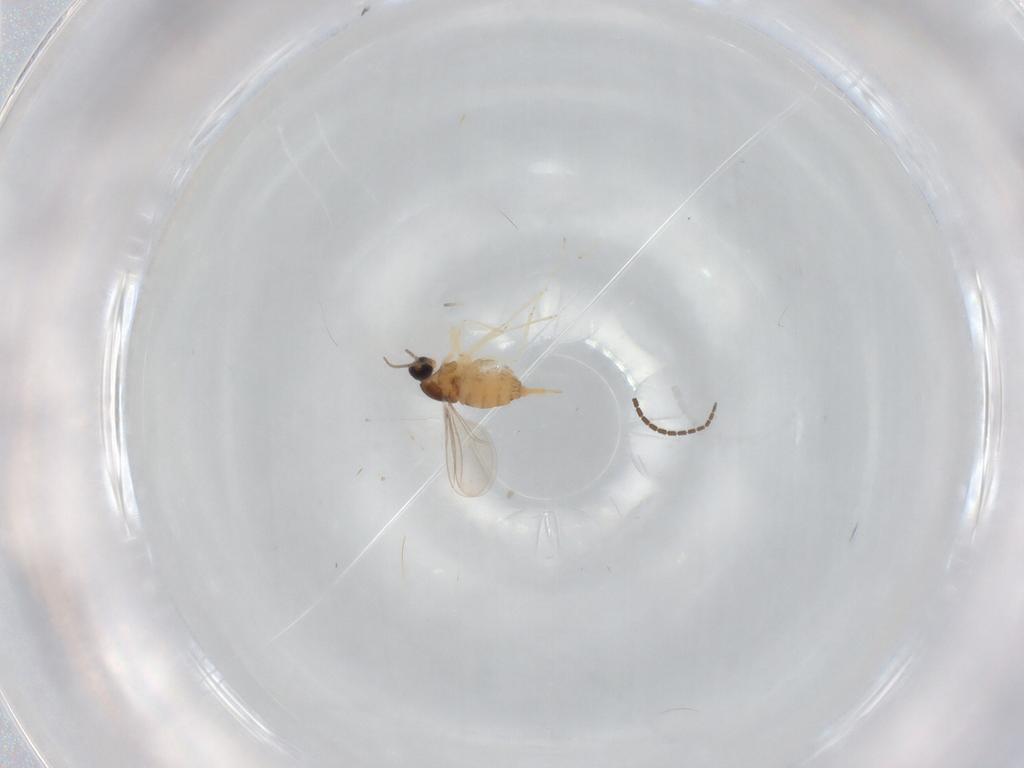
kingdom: Animalia
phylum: Arthropoda
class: Insecta
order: Diptera
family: Cecidomyiidae
